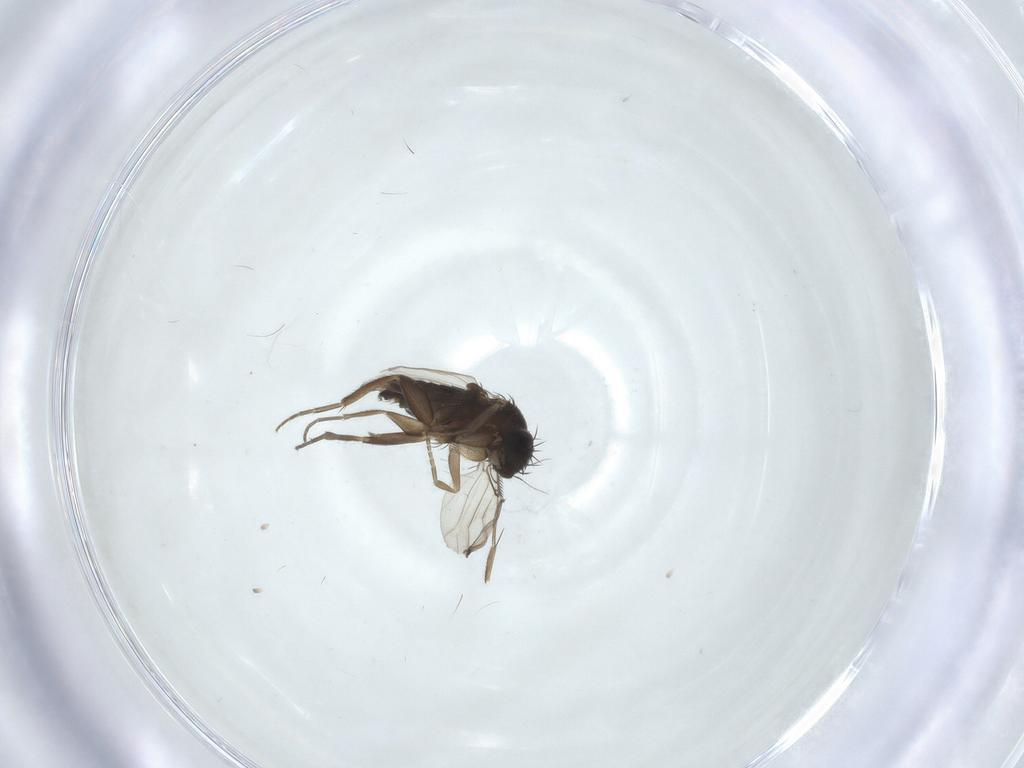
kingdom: Animalia
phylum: Arthropoda
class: Insecta
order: Diptera
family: Phoridae
